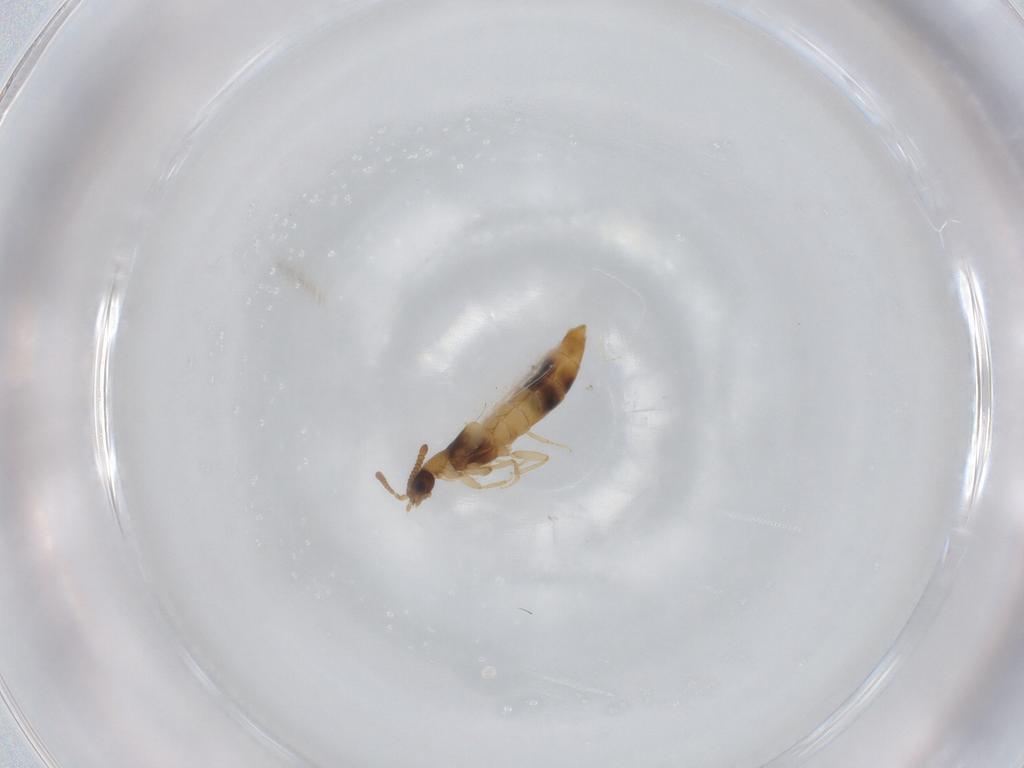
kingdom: Animalia
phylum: Arthropoda
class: Insecta
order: Coleoptera
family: Staphylinidae
